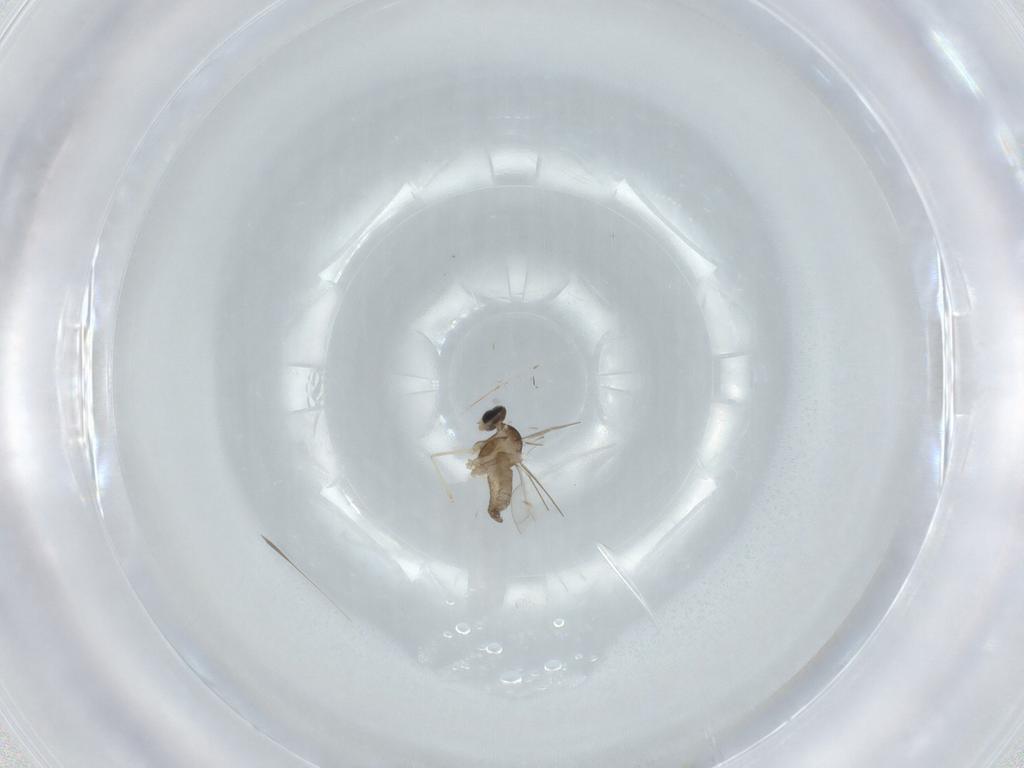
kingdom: Animalia
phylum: Arthropoda
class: Insecta
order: Diptera
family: Cecidomyiidae
